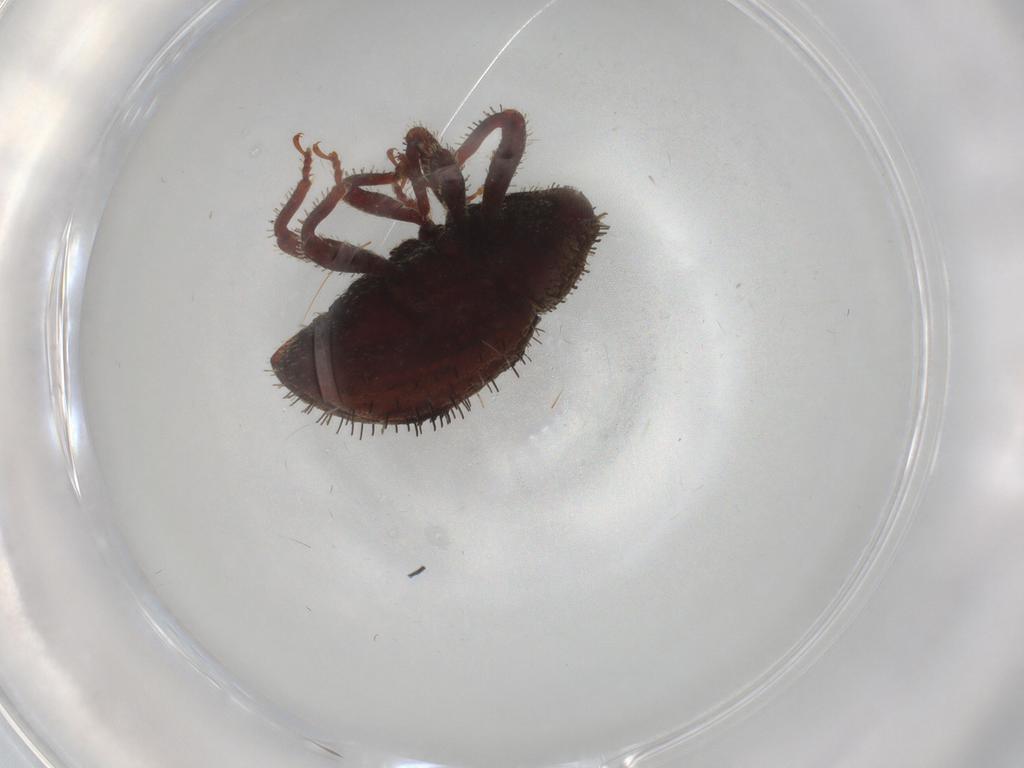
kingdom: Animalia
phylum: Arthropoda
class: Insecta
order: Coleoptera
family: Curculionidae
